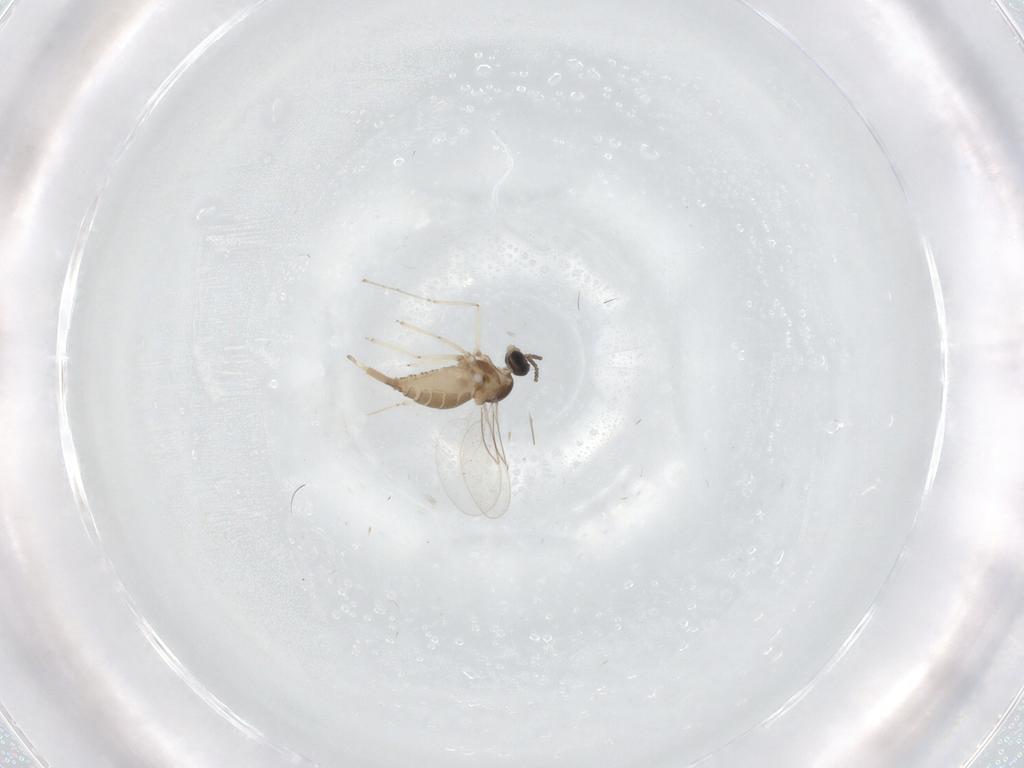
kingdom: Animalia
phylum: Arthropoda
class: Insecta
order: Diptera
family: Cecidomyiidae
